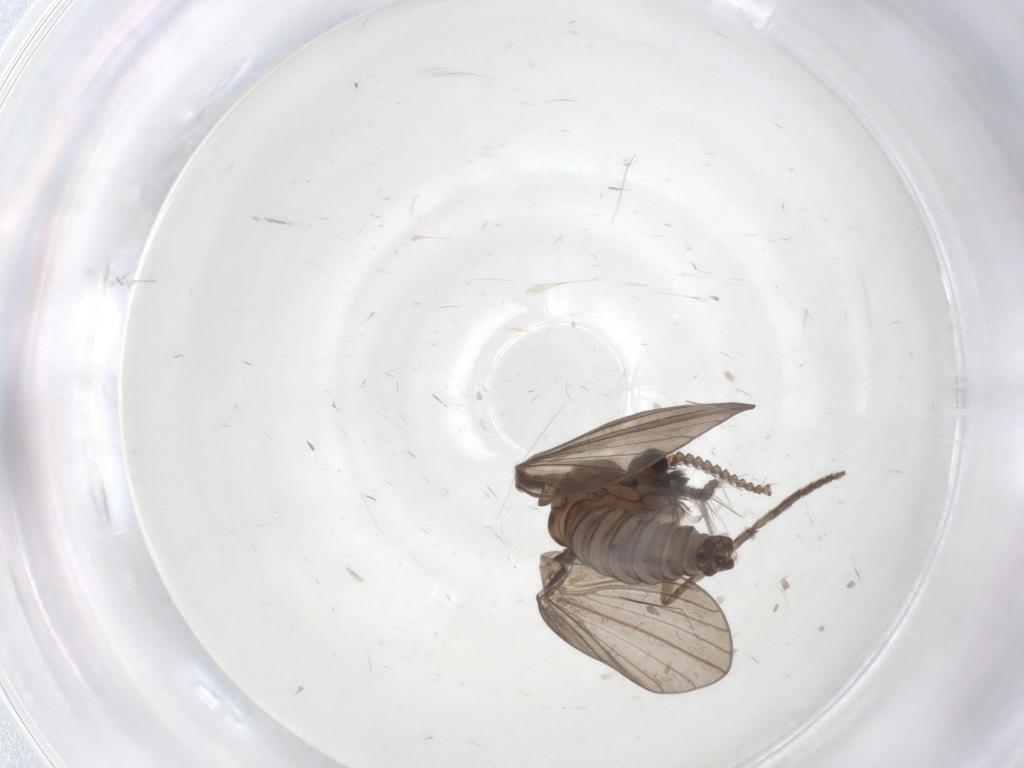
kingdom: Animalia
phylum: Arthropoda
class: Insecta
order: Diptera
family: Psychodidae
